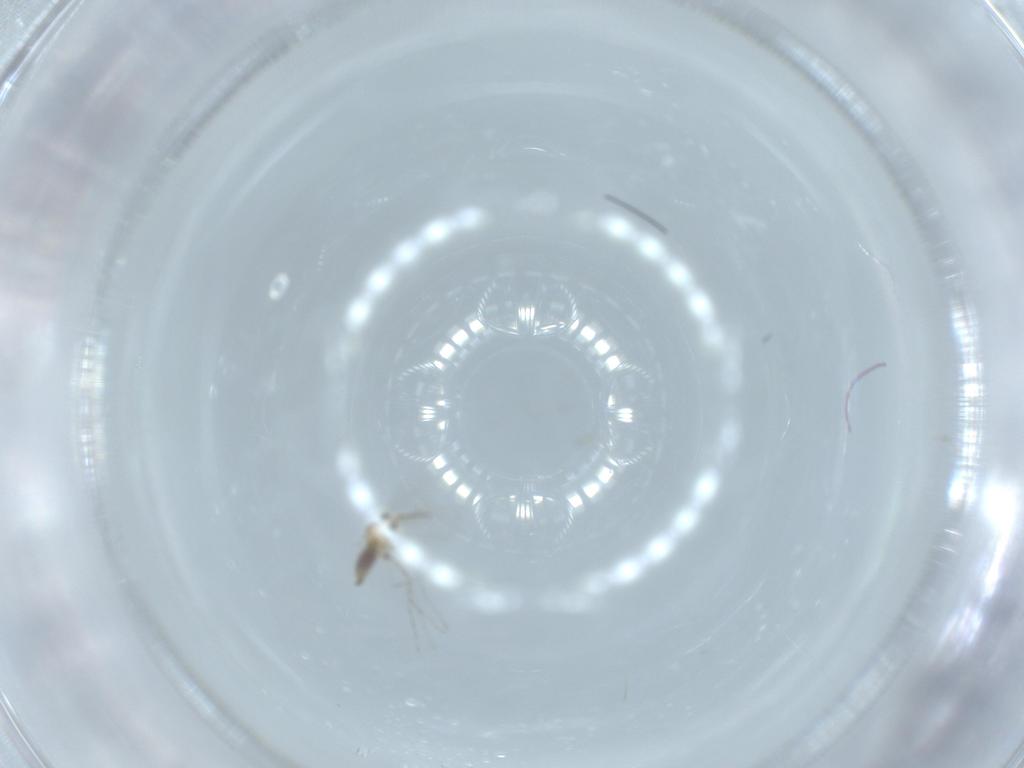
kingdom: Animalia
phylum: Arthropoda
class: Insecta
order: Diptera
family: Cecidomyiidae
